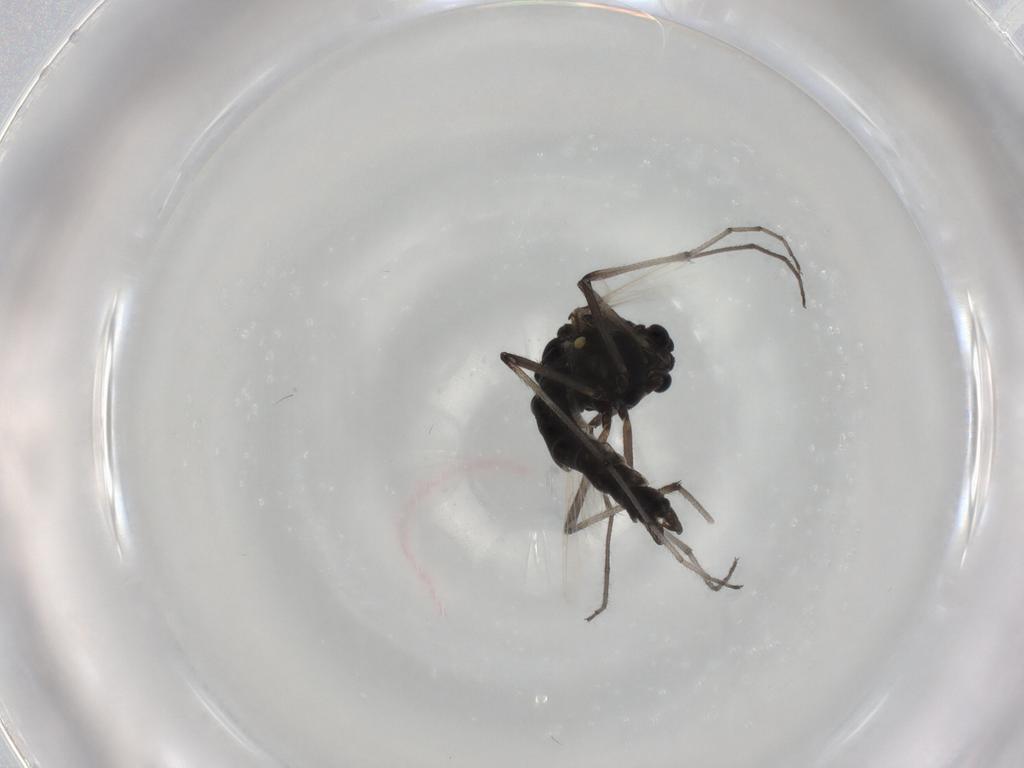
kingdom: Animalia
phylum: Arthropoda
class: Insecta
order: Diptera
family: Chironomidae
